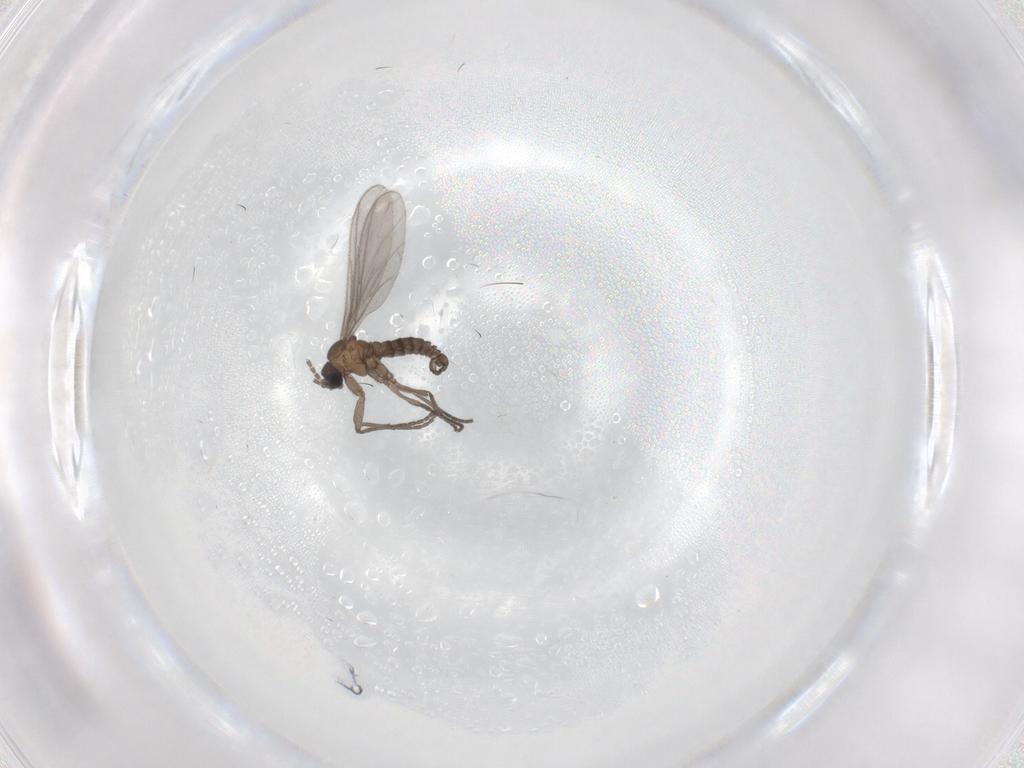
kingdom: Animalia
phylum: Arthropoda
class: Insecta
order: Diptera
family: Sciaridae
